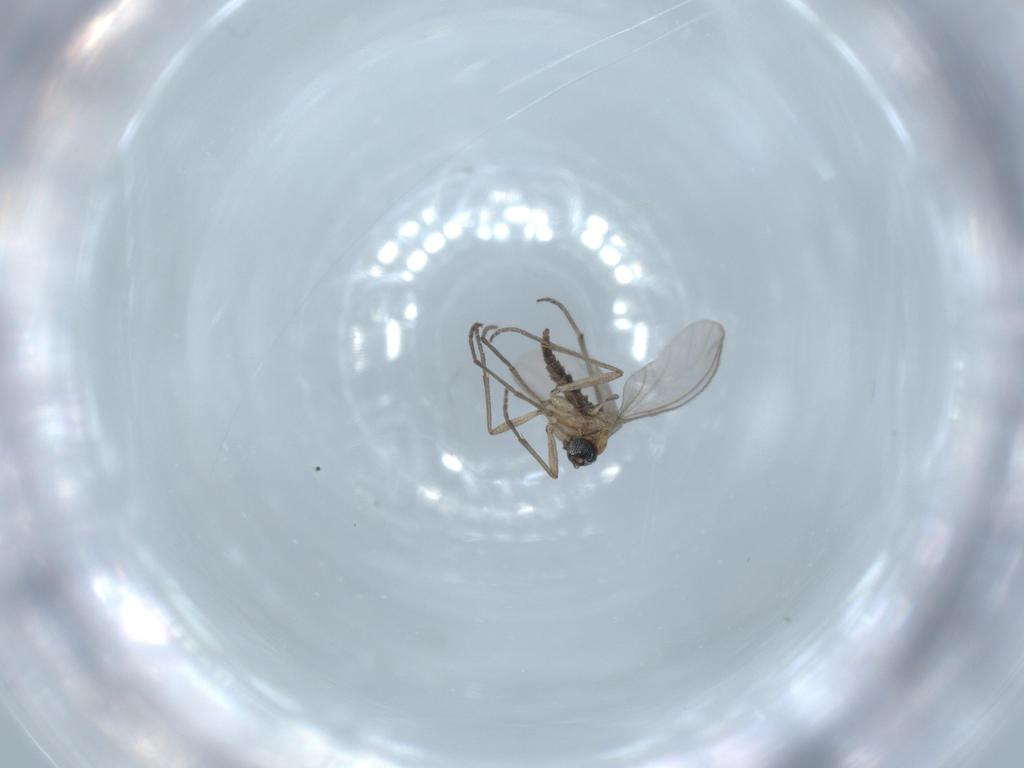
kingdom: Animalia
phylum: Arthropoda
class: Insecta
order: Diptera
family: Sciaridae
